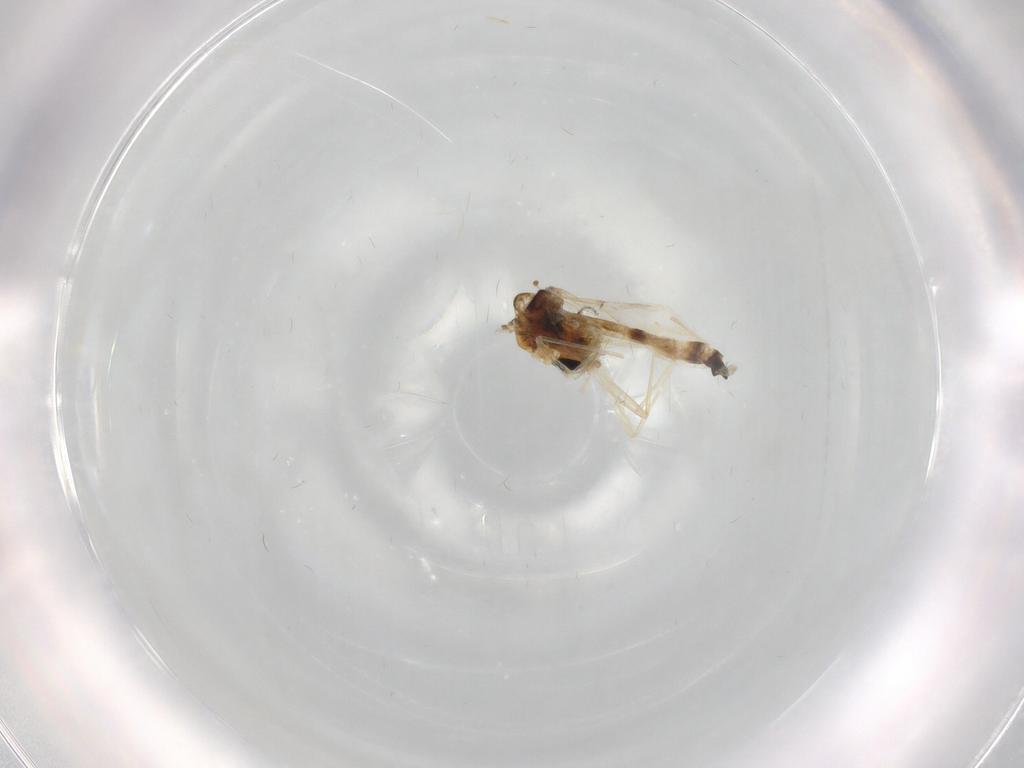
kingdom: Animalia
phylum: Arthropoda
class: Insecta
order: Diptera
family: Chironomidae
